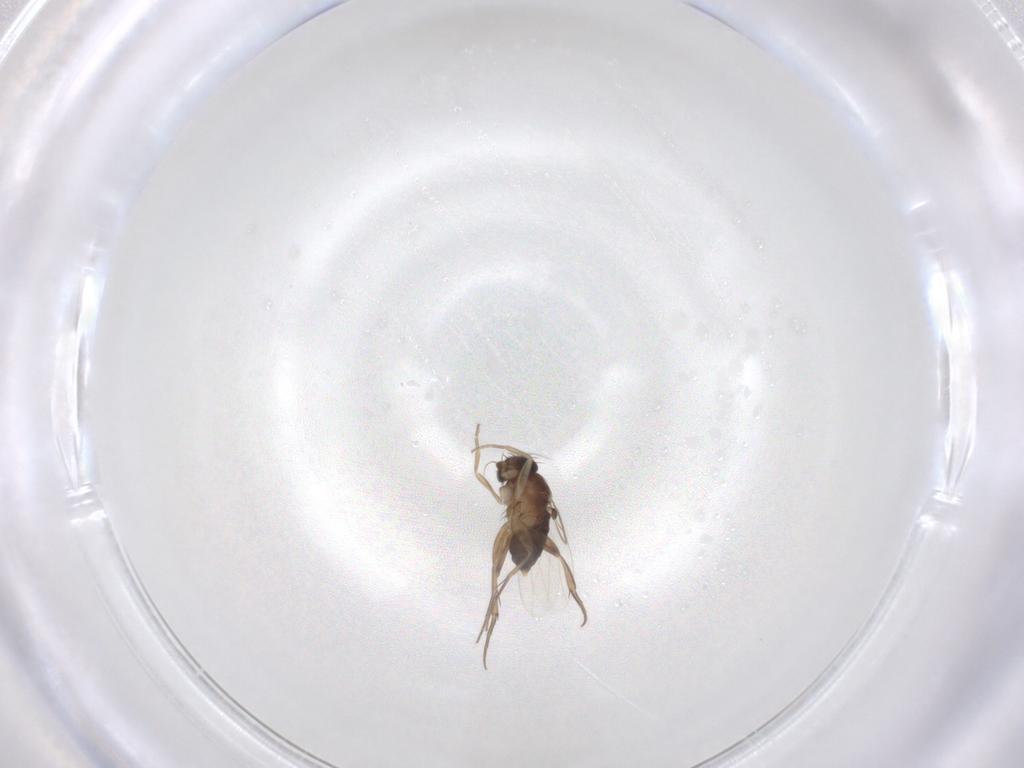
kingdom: Animalia
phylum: Arthropoda
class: Insecta
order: Diptera
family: Phoridae
